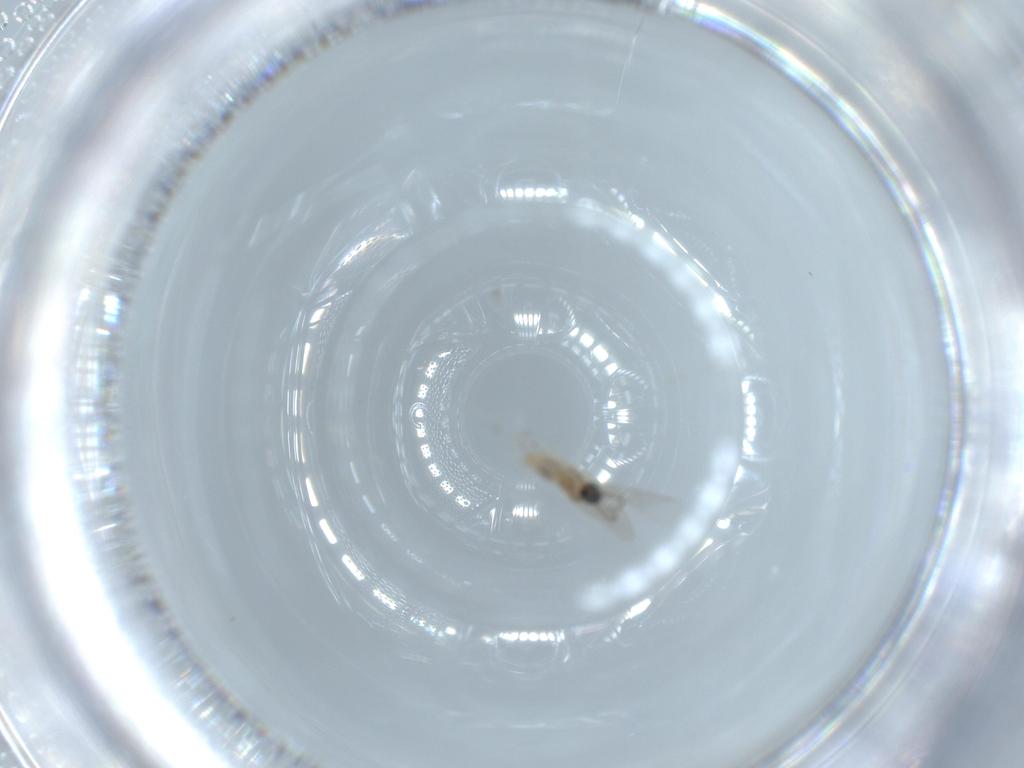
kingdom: Animalia
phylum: Arthropoda
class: Insecta
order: Diptera
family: Cecidomyiidae
